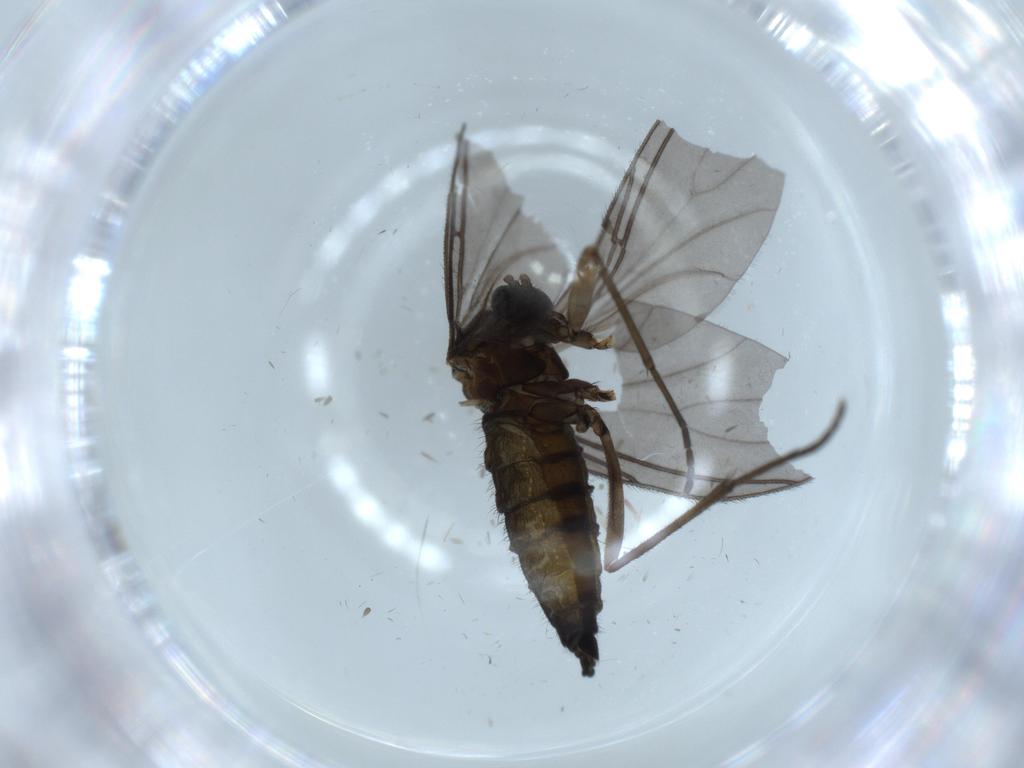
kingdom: Animalia
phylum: Arthropoda
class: Insecta
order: Diptera
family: Sciaridae
